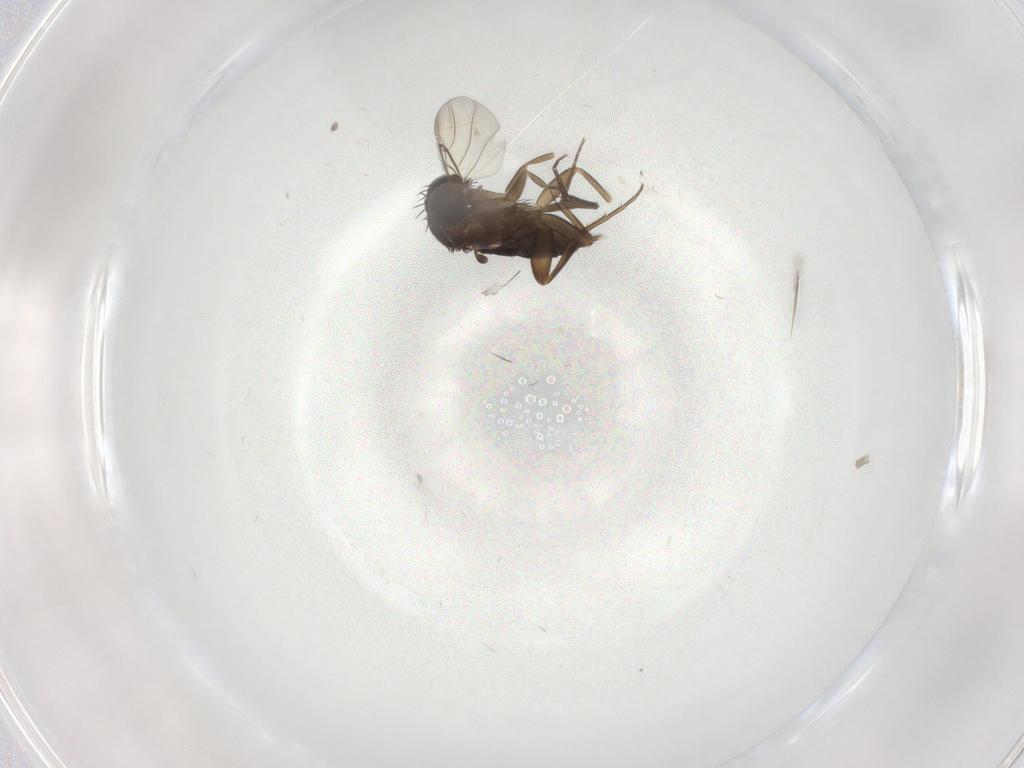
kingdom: Animalia
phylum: Arthropoda
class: Insecta
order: Diptera
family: Phoridae
